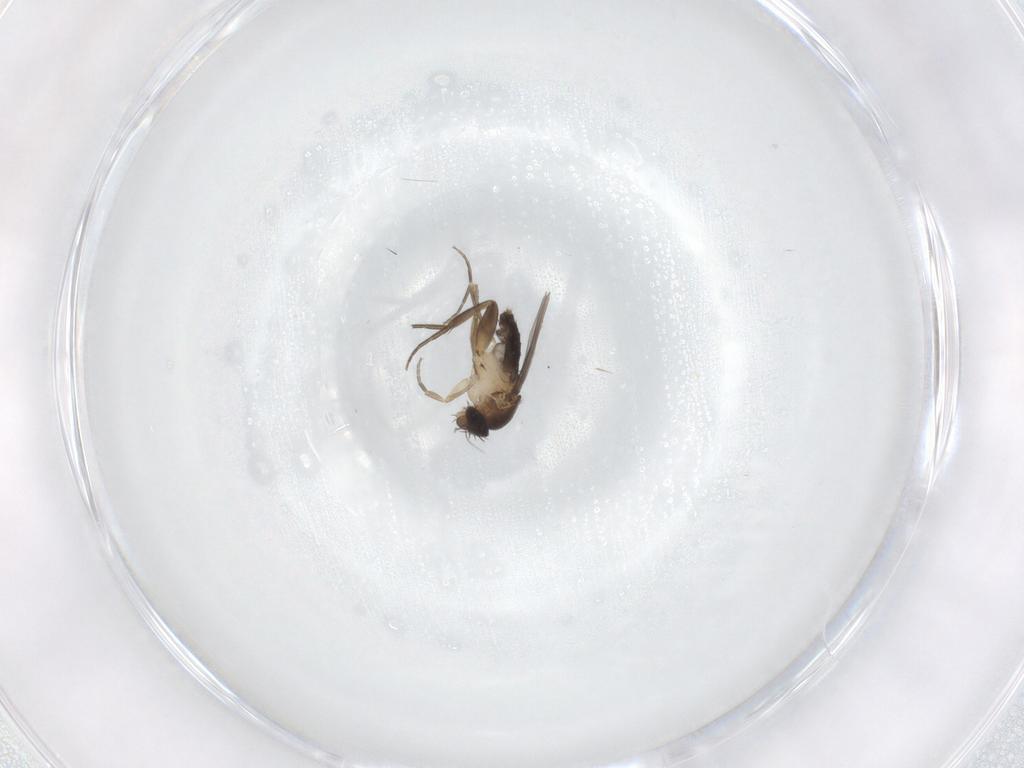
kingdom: Animalia
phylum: Arthropoda
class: Insecta
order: Diptera
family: Phoridae
